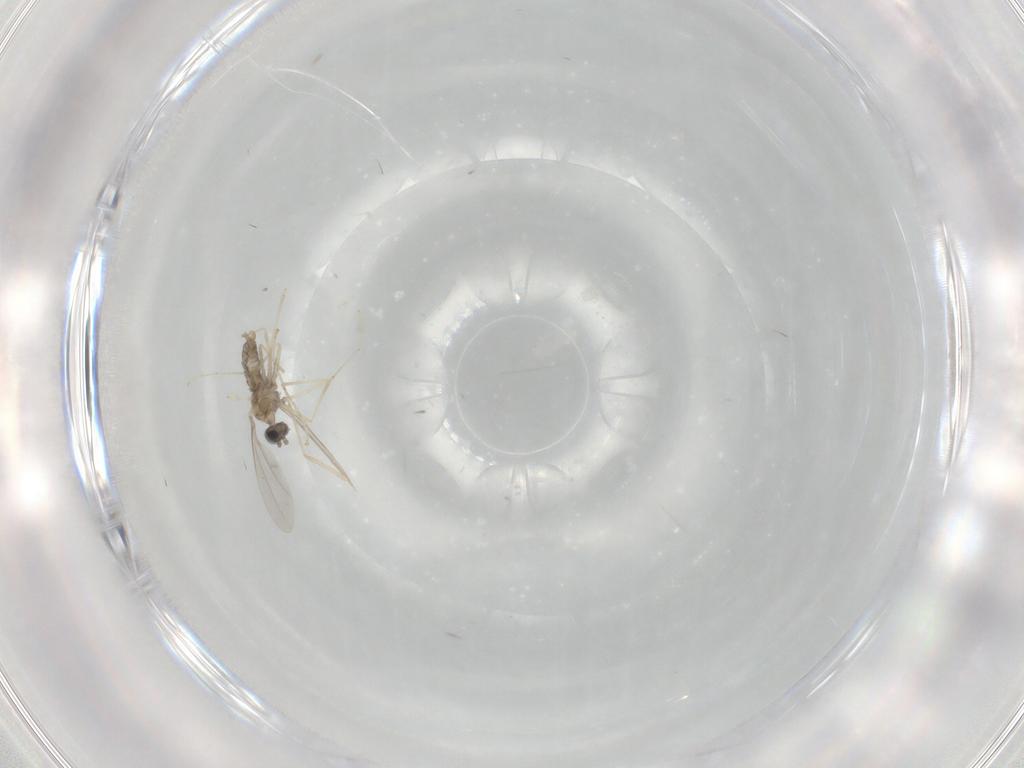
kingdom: Animalia
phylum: Arthropoda
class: Insecta
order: Diptera
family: Cecidomyiidae
